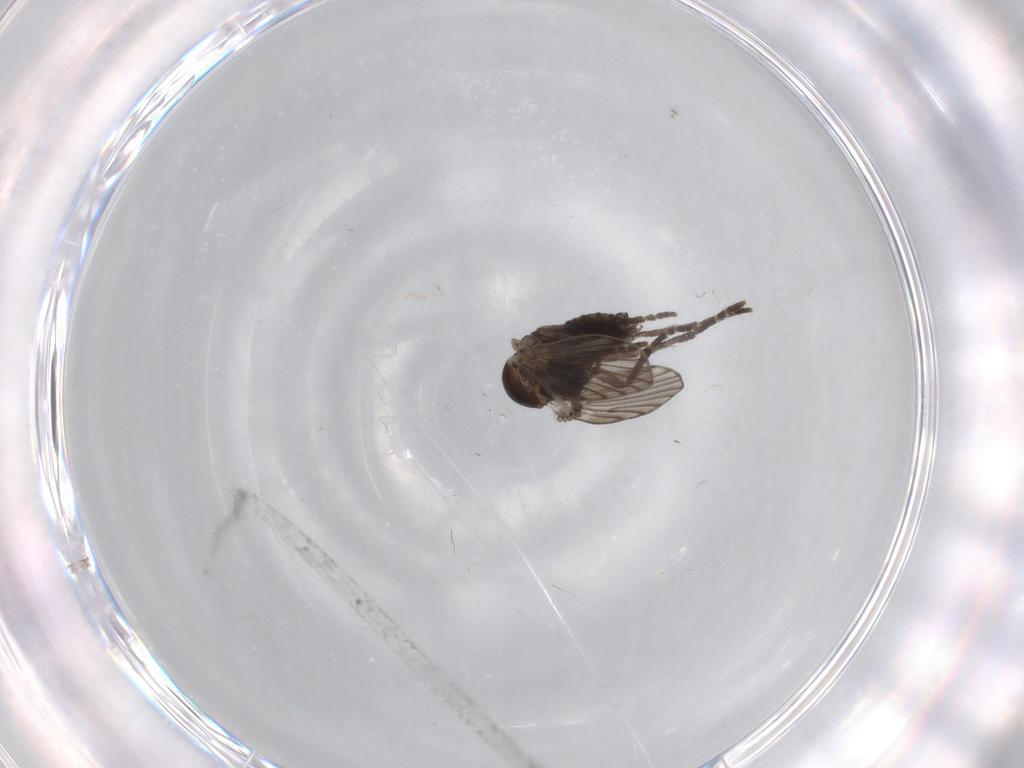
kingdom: Animalia
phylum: Arthropoda
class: Insecta
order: Diptera
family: Psychodidae
